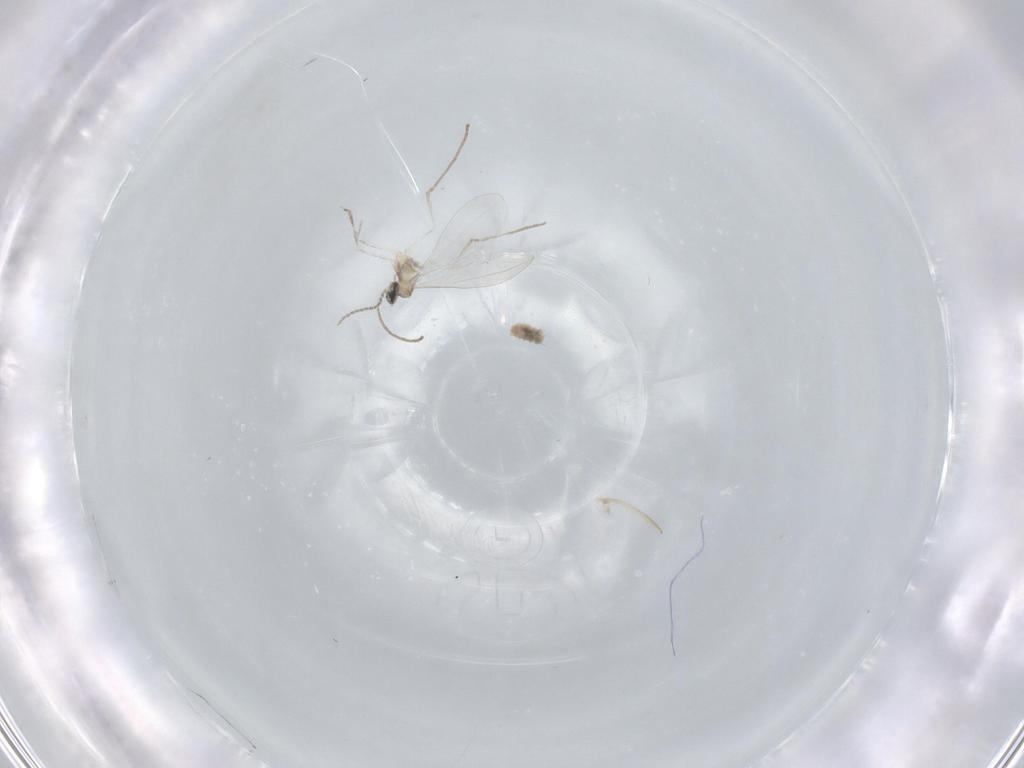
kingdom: Animalia
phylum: Arthropoda
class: Insecta
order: Diptera
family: Cecidomyiidae
